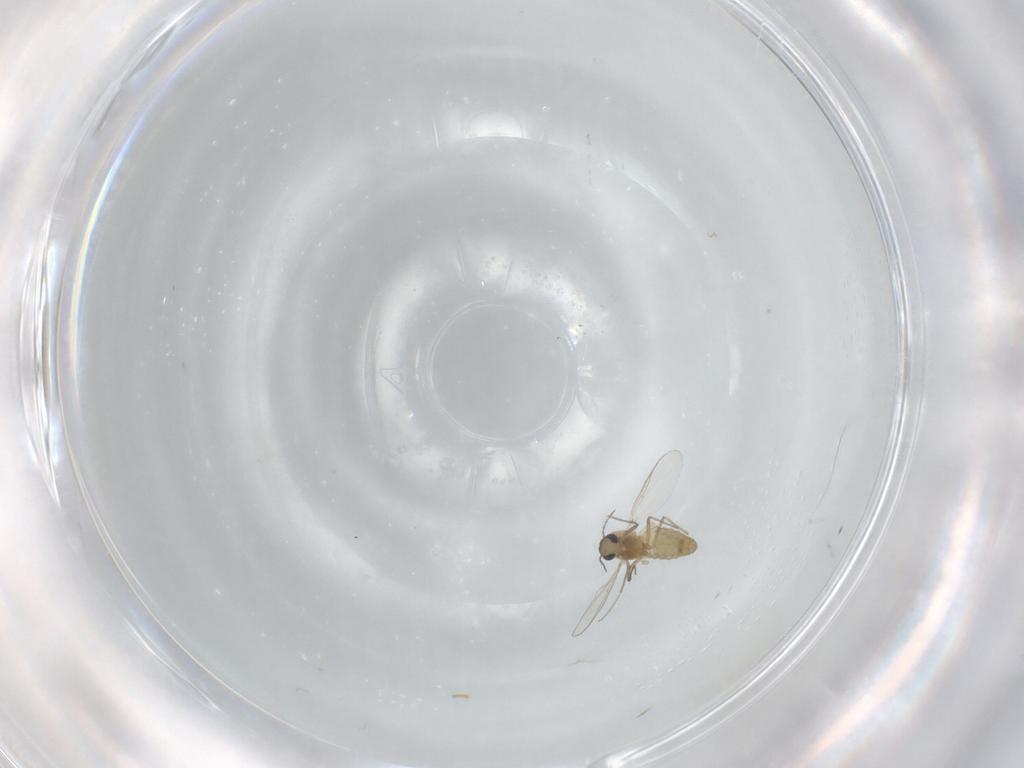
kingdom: Animalia
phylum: Arthropoda
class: Insecta
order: Diptera
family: Chironomidae
